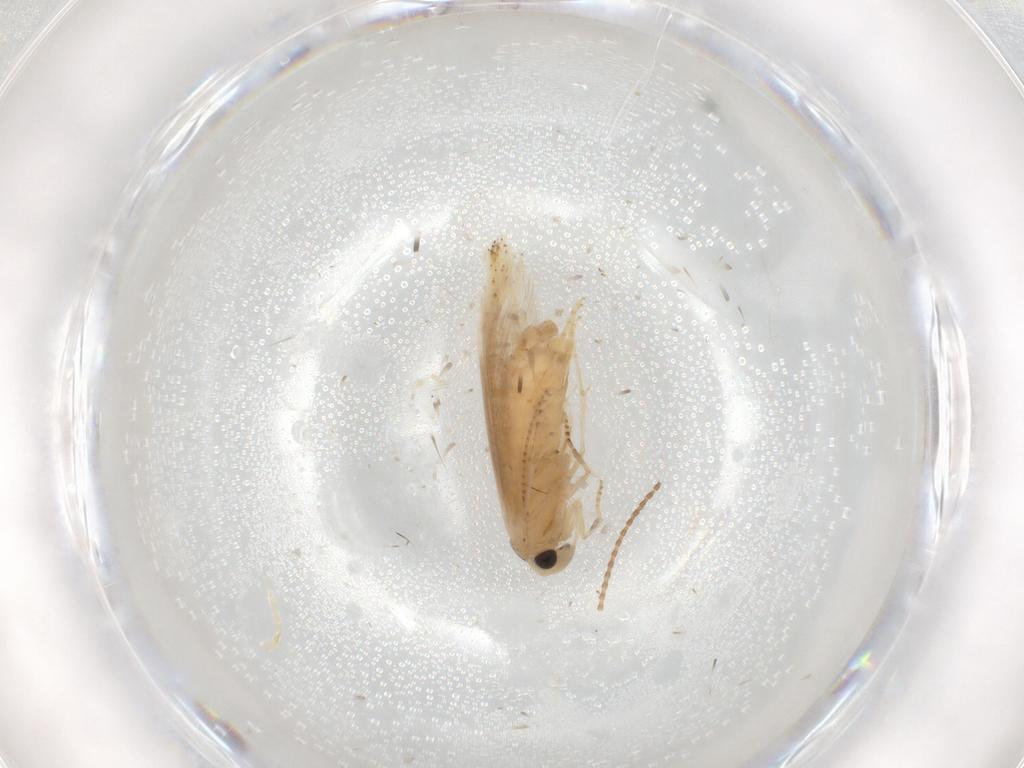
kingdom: Animalia
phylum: Arthropoda
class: Insecta
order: Lepidoptera
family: Bucculatricidae
